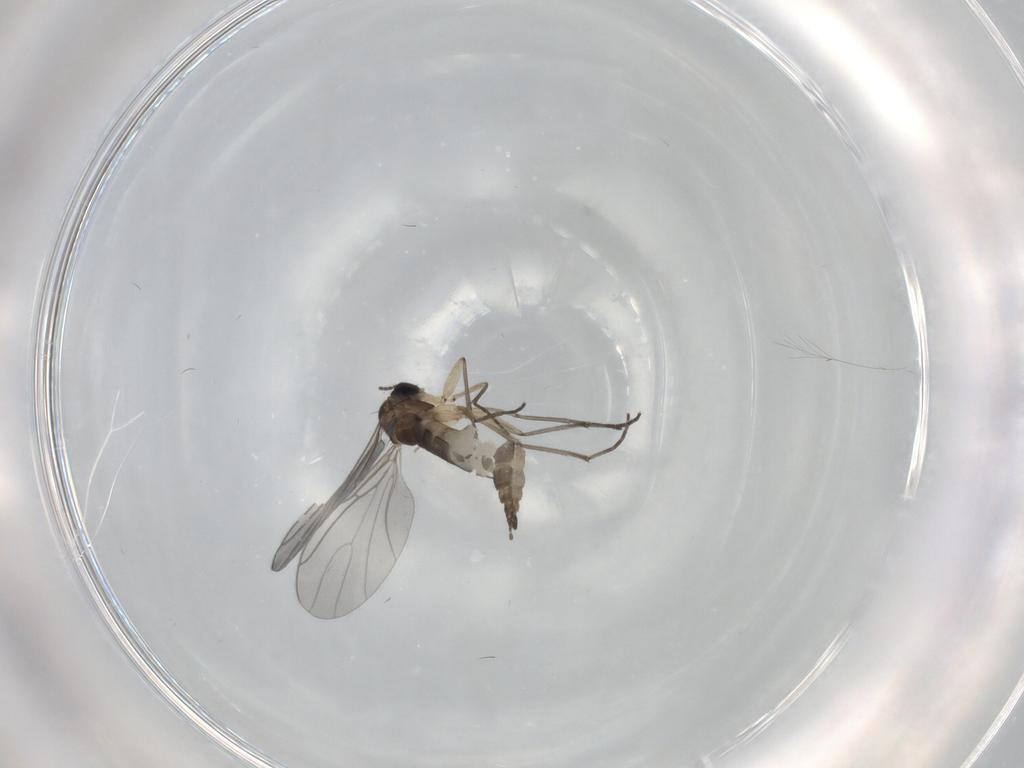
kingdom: Animalia
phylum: Arthropoda
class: Insecta
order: Diptera
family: Sciaridae
